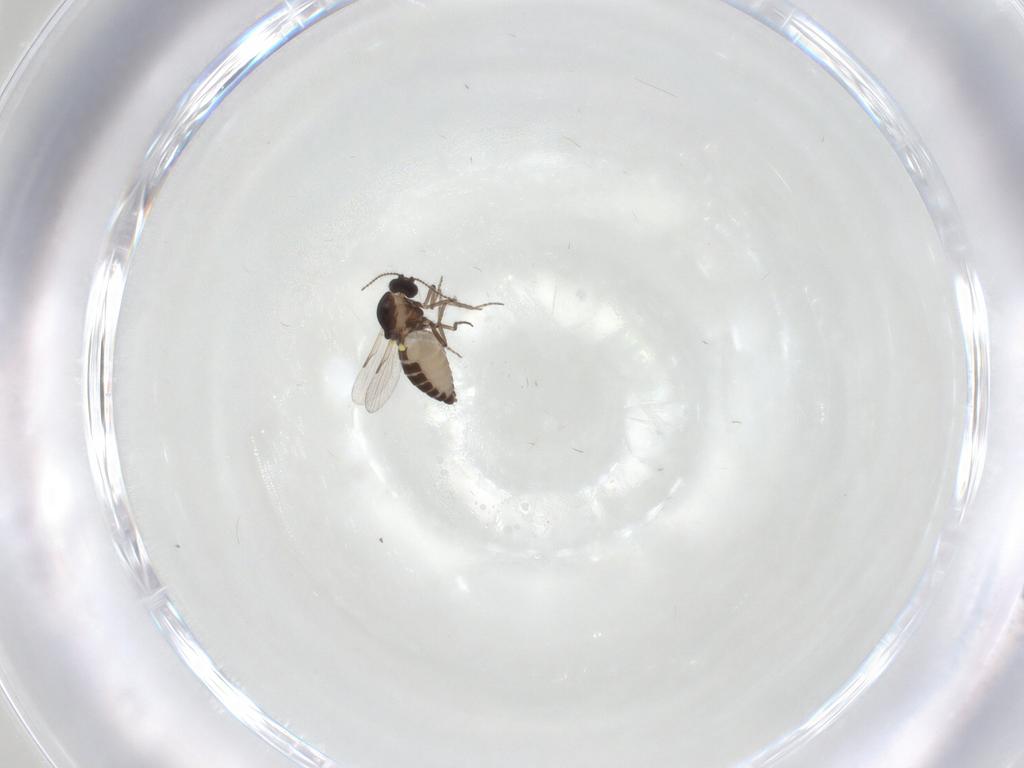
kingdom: Animalia
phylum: Arthropoda
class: Insecta
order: Diptera
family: Ceratopogonidae
